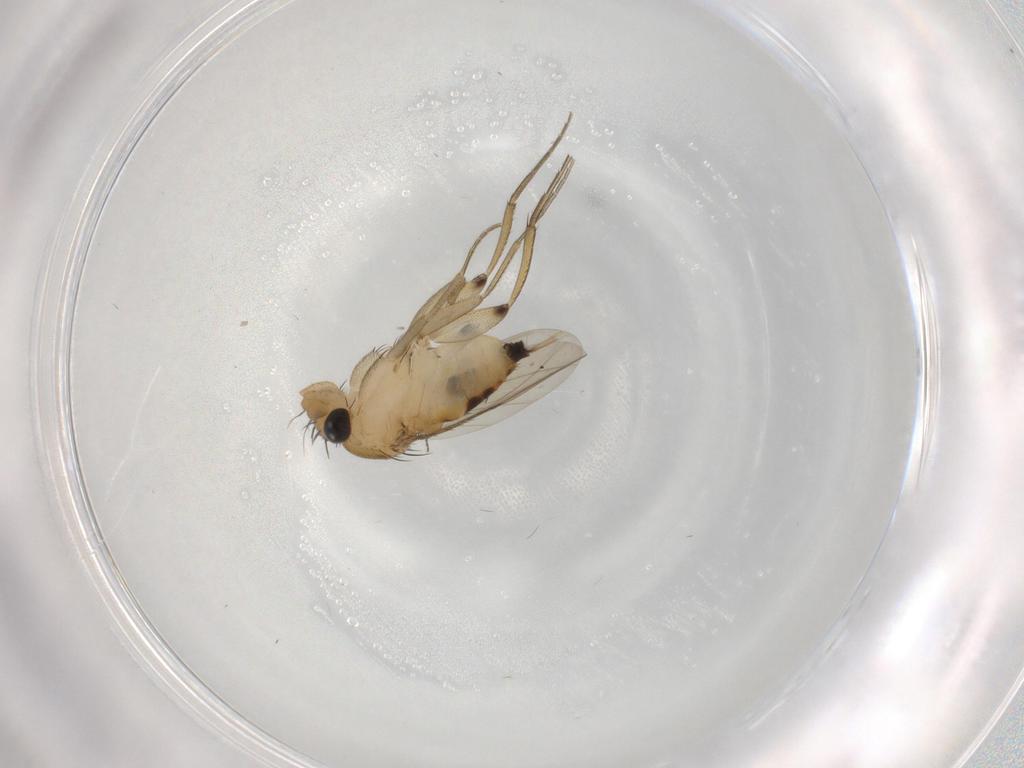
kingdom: Animalia
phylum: Arthropoda
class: Insecta
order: Diptera
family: Phoridae
